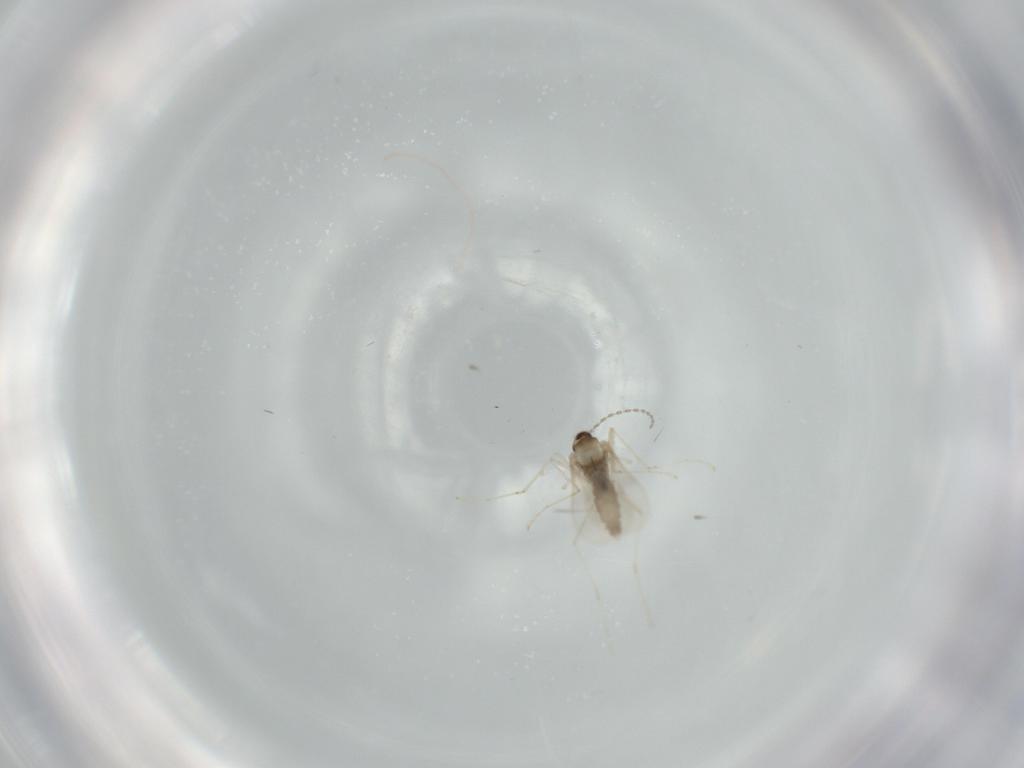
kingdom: Animalia
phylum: Arthropoda
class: Insecta
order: Diptera
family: Cecidomyiidae
